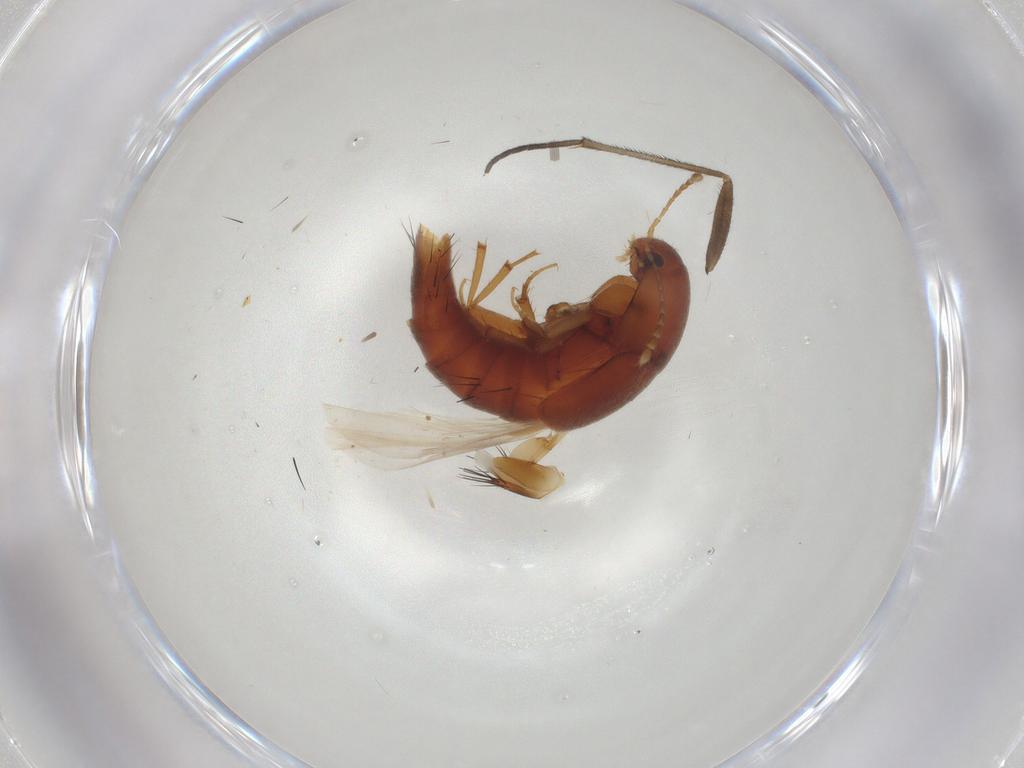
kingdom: Animalia
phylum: Arthropoda
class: Insecta
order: Coleoptera
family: Staphylinidae
